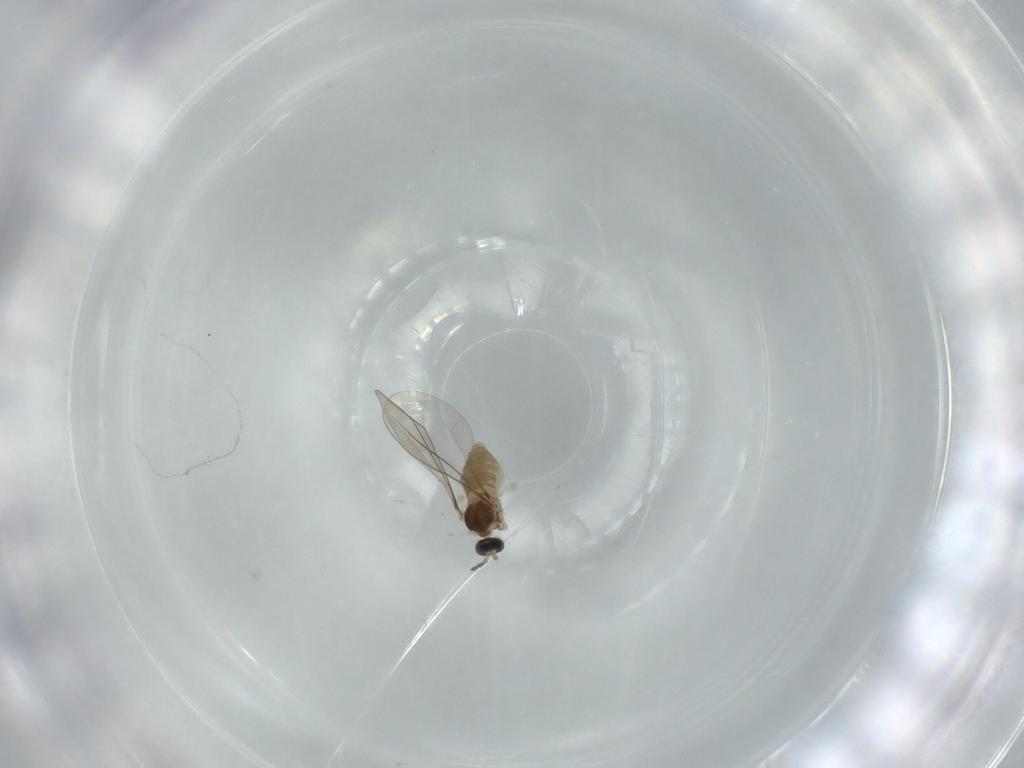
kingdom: Animalia
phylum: Arthropoda
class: Insecta
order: Diptera
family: Cecidomyiidae
